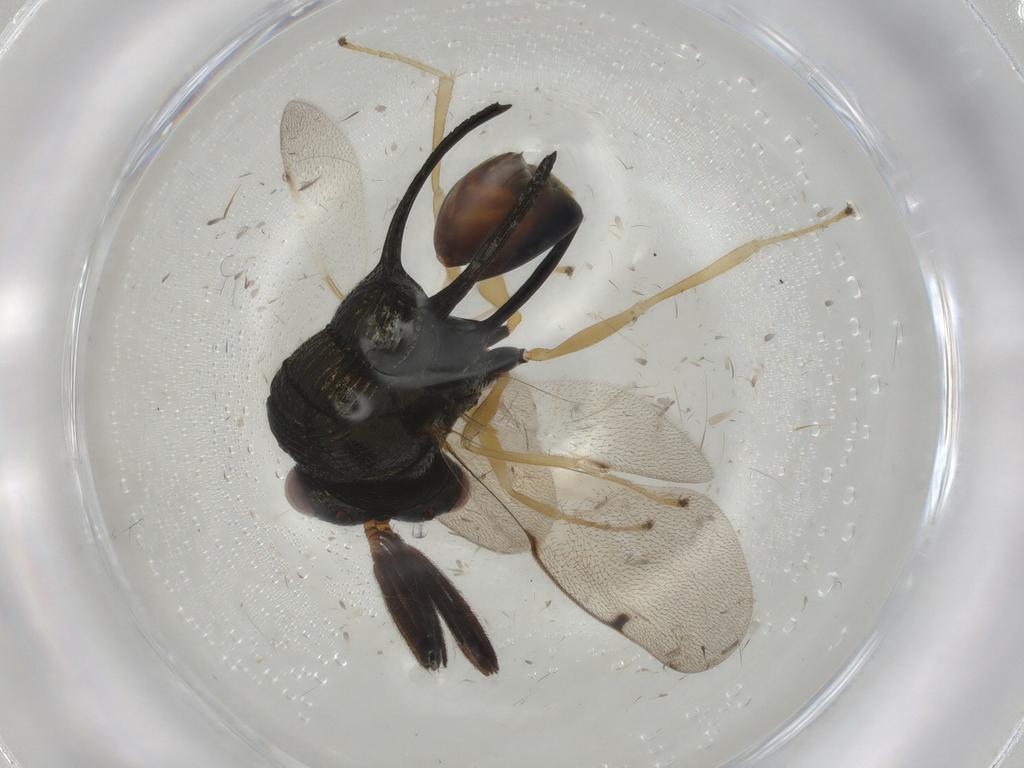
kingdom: Animalia
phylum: Arthropoda
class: Insecta
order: Hymenoptera
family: Formicidae
